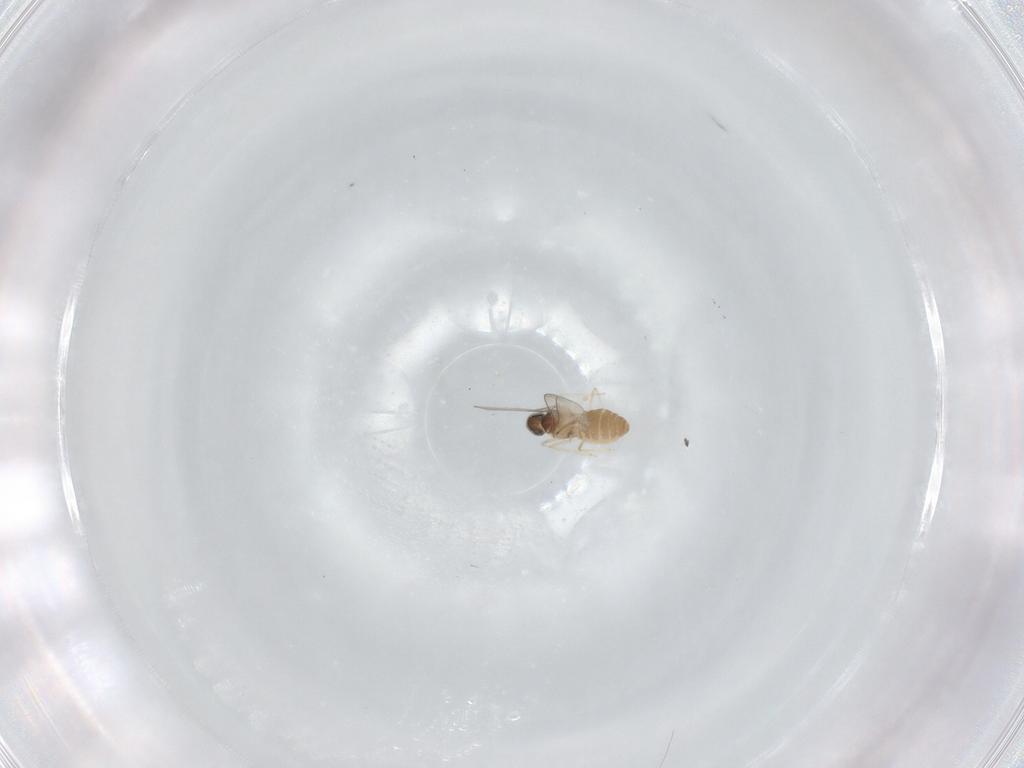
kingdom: Animalia
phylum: Arthropoda
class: Insecta
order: Diptera
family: Cecidomyiidae
